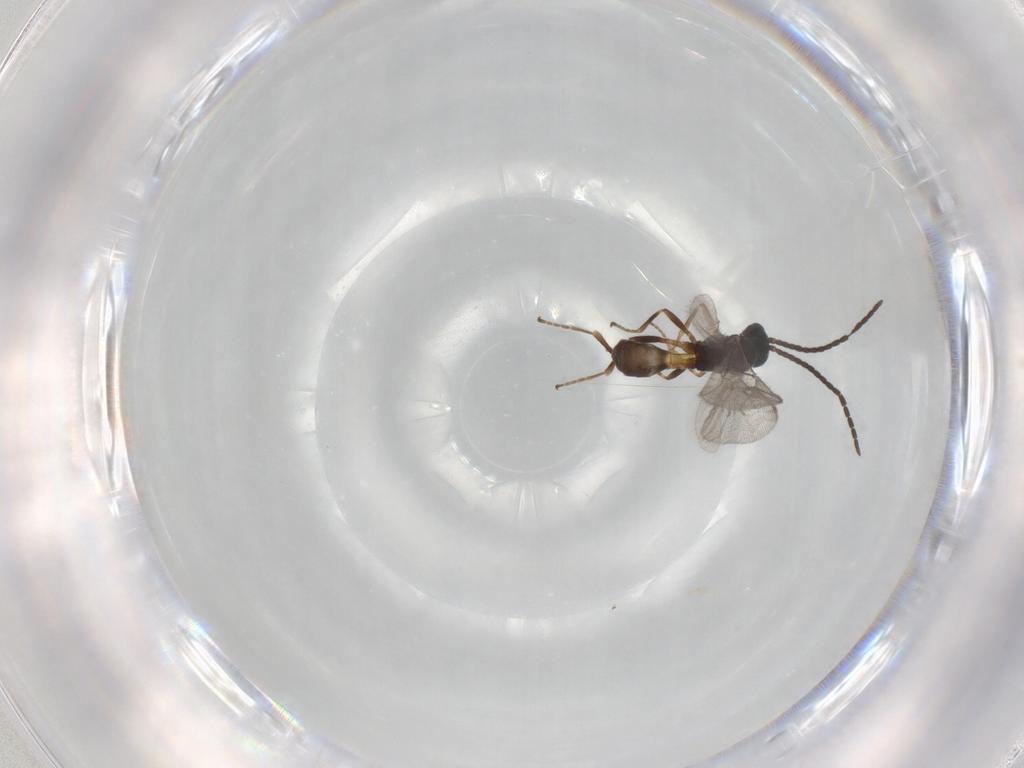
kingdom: Animalia
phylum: Arthropoda
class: Insecta
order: Hymenoptera
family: Braconidae
